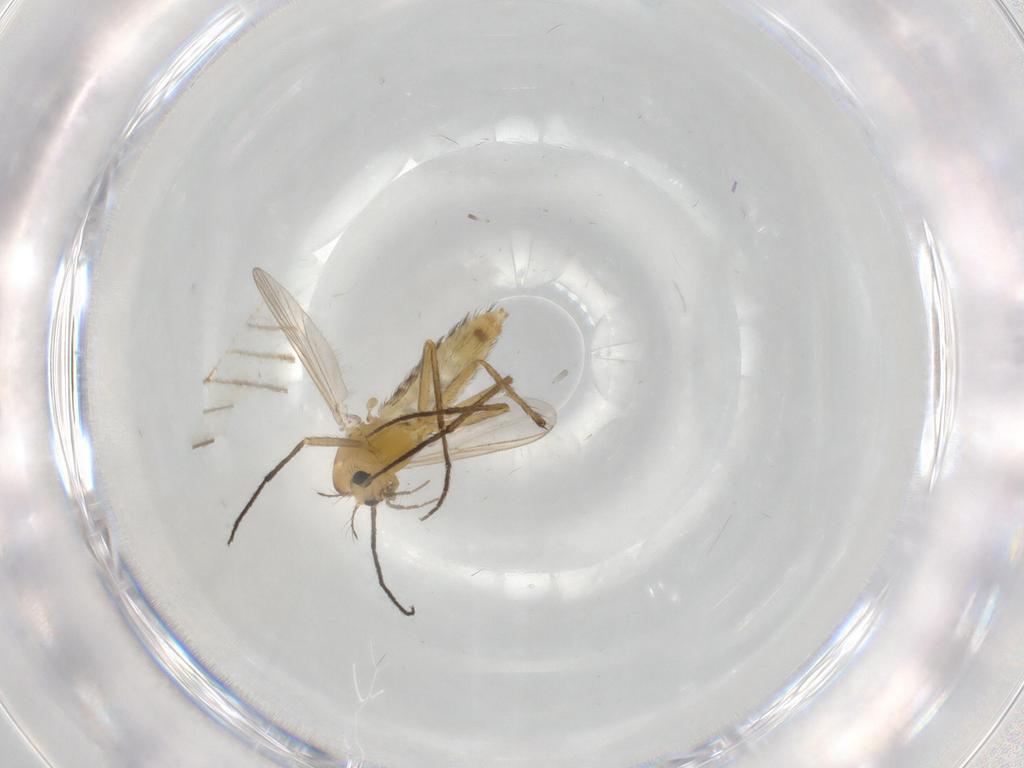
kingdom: Animalia
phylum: Arthropoda
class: Insecta
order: Diptera
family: Chironomidae
